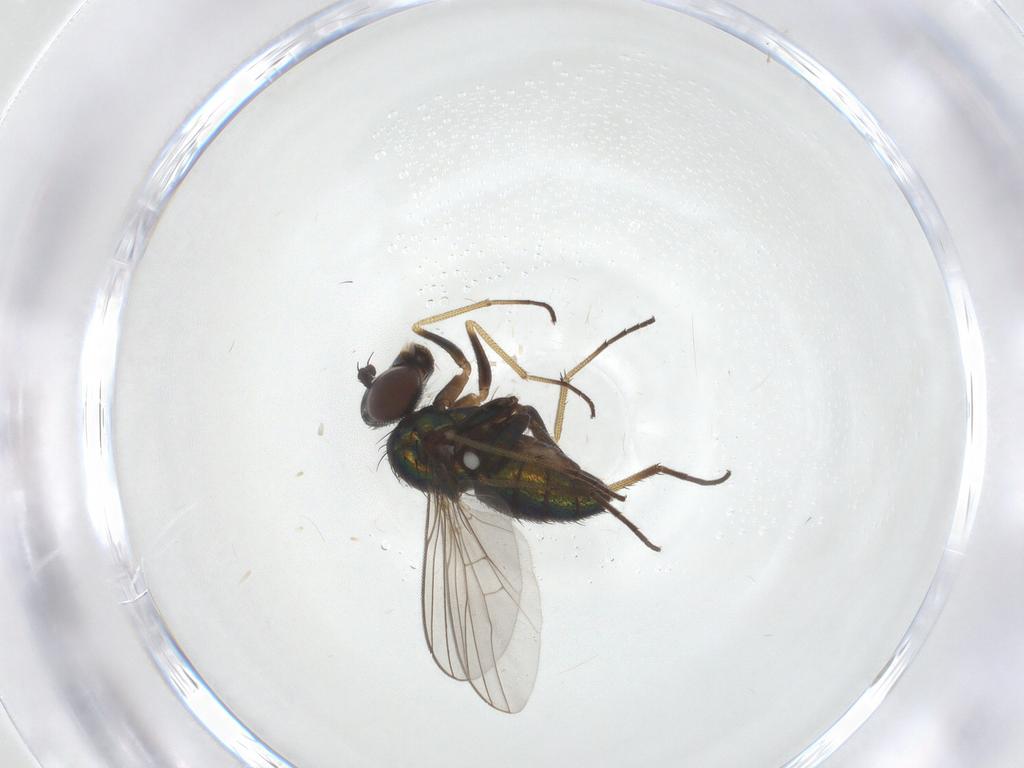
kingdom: Animalia
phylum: Arthropoda
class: Insecta
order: Diptera
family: Dolichopodidae
